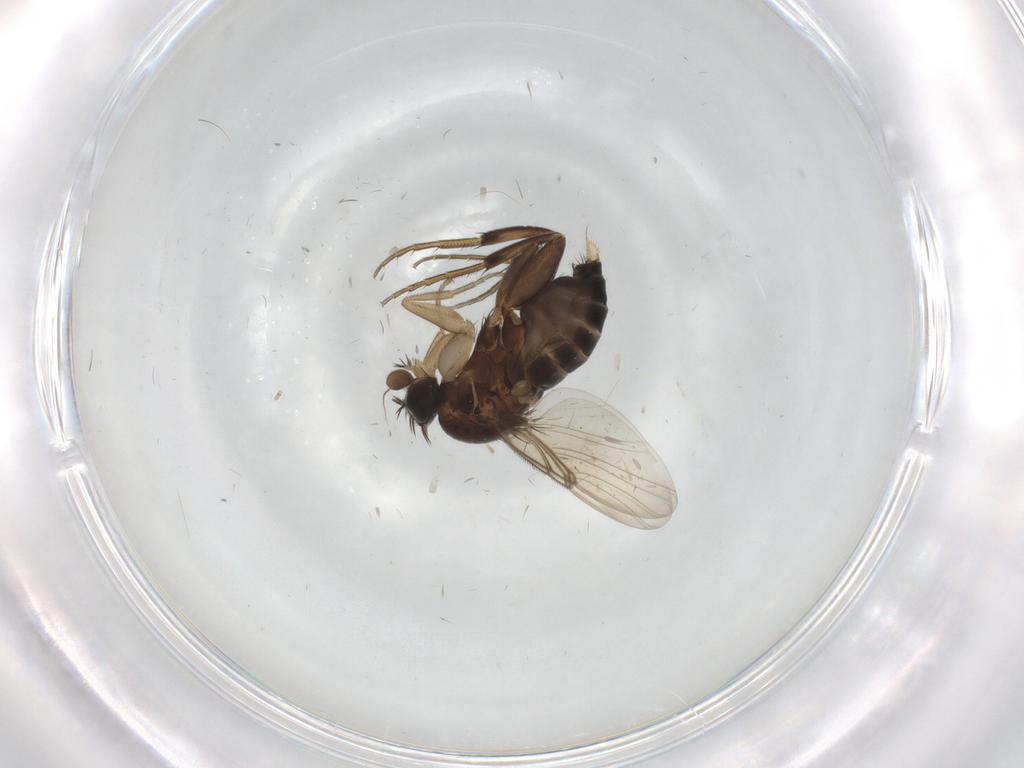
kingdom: Animalia
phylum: Arthropoda
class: Insecta
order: Diptera
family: Phoridae
